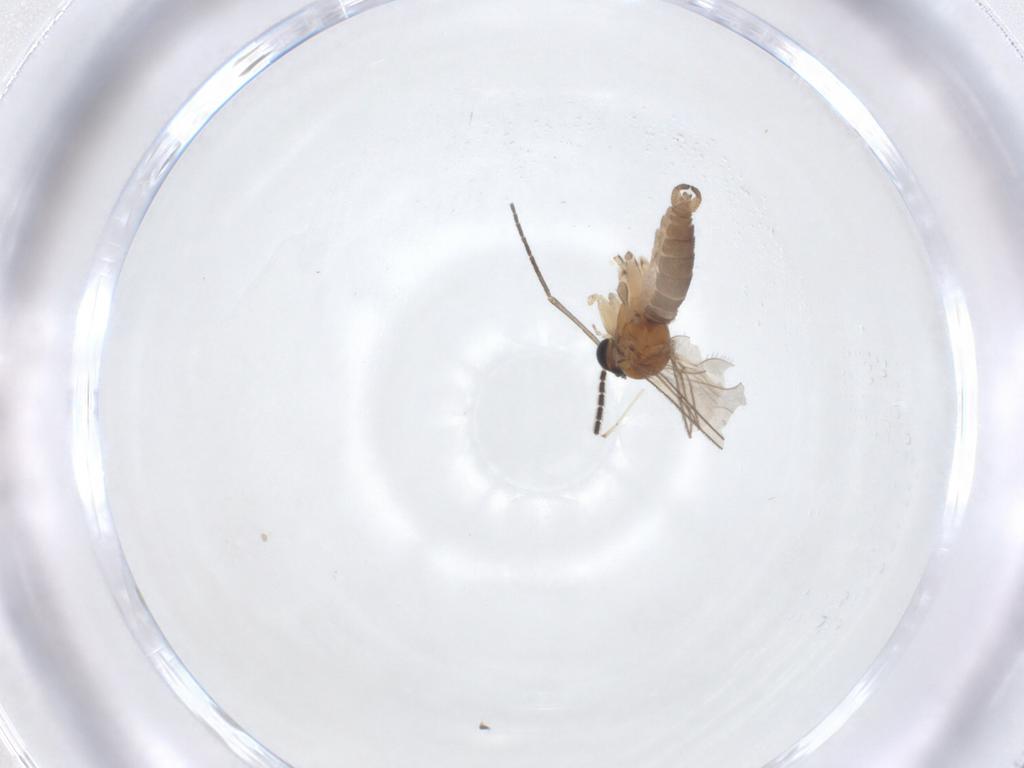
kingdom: Animalia
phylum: Arthropoda
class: Insecta
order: Diptera
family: Sciaridae
